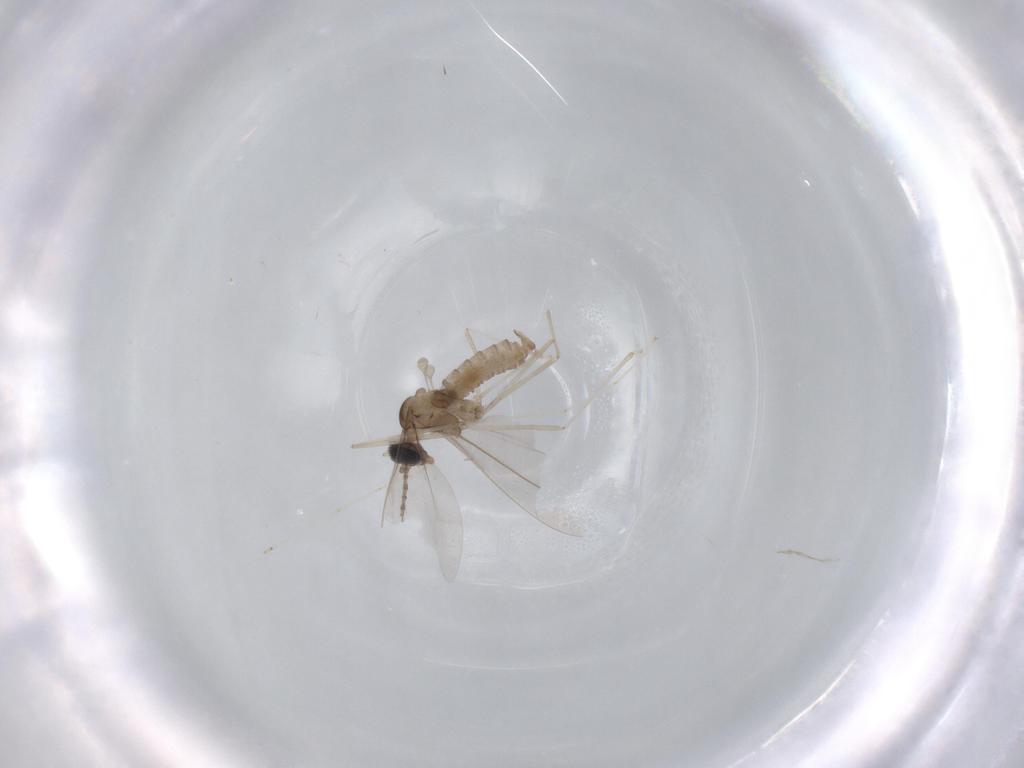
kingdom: Animalia
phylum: Arthropoda
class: Insecta
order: Diptera
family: Cecidomyiidae
